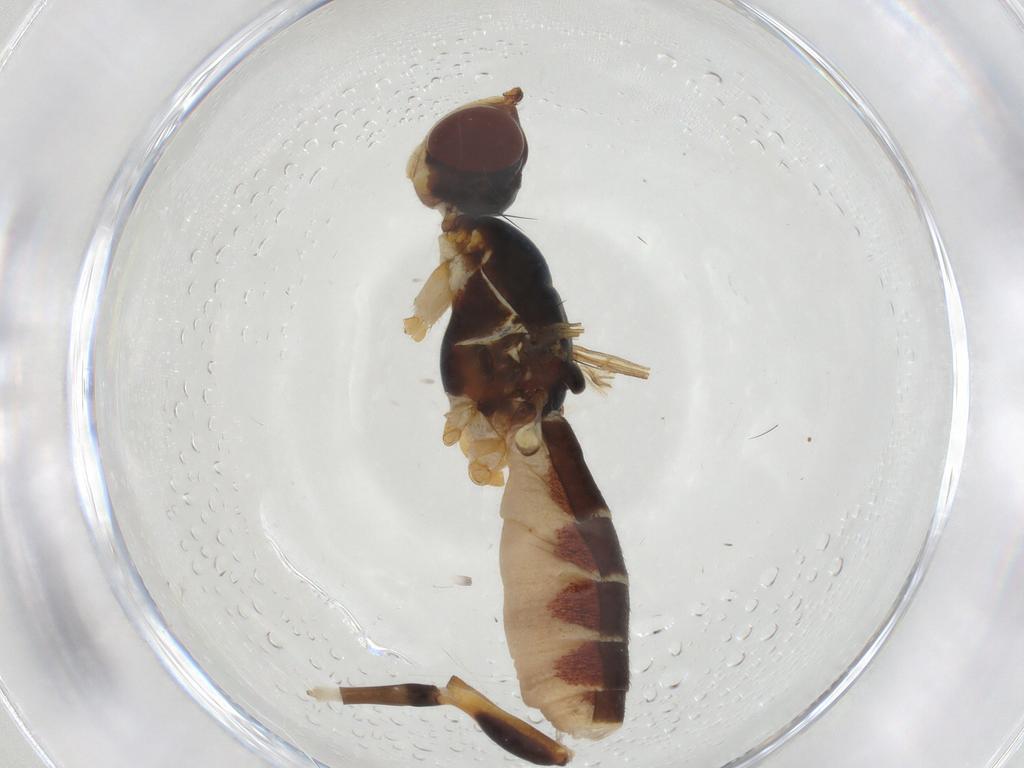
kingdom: Animalia
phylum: Arthropoda
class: Insecta
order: Diptera
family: Micropezidae
